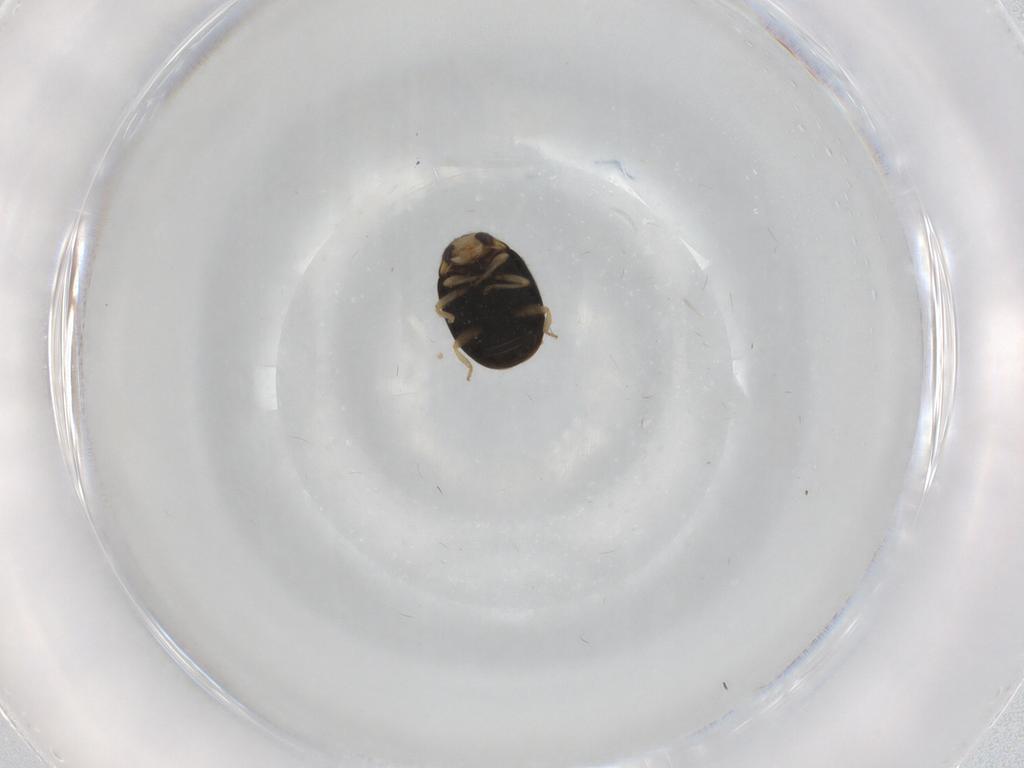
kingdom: Animalia
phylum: Arthropoda
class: Insecta
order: Coleoptera
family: Coccinellidae
